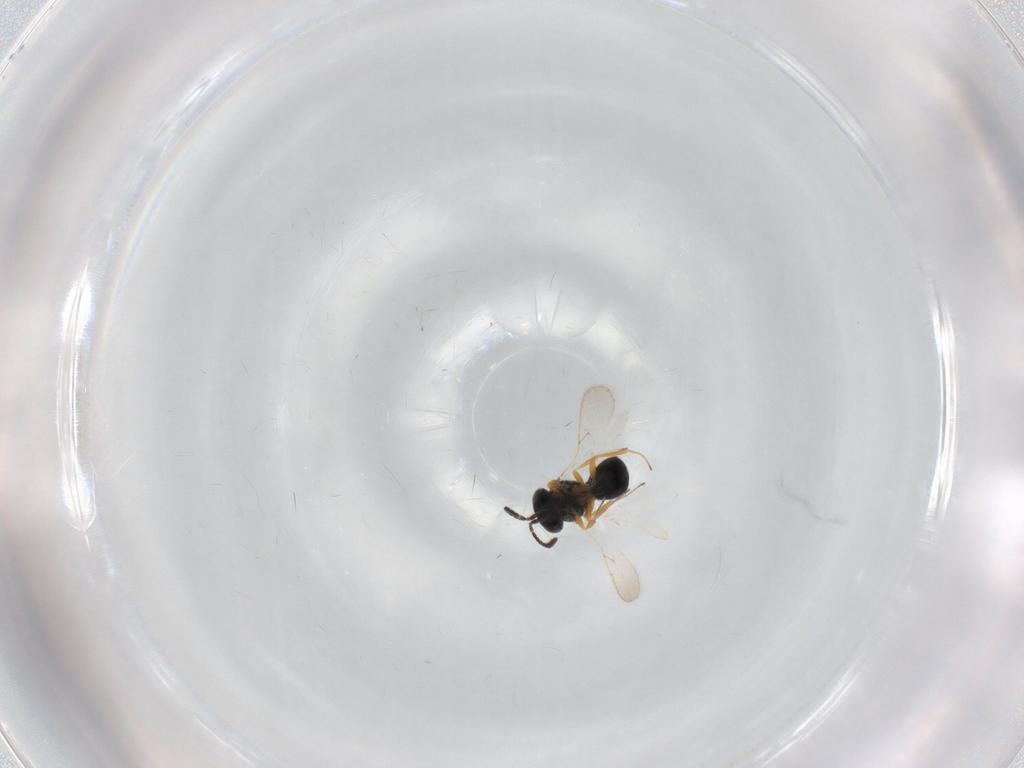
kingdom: Animalia
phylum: Arthropoda
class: Insecta
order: Hymenoptera
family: Scelionidae
